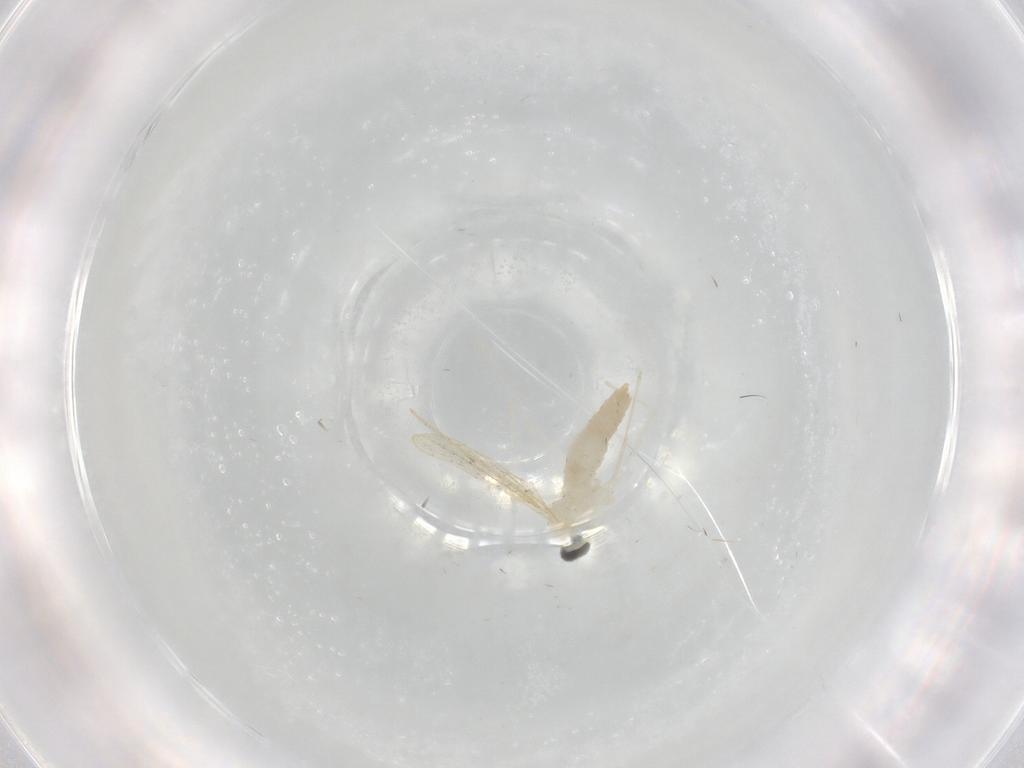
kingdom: Animalia
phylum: Arthropoda
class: Insecta
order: Diptera
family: Cecidomyiidae
